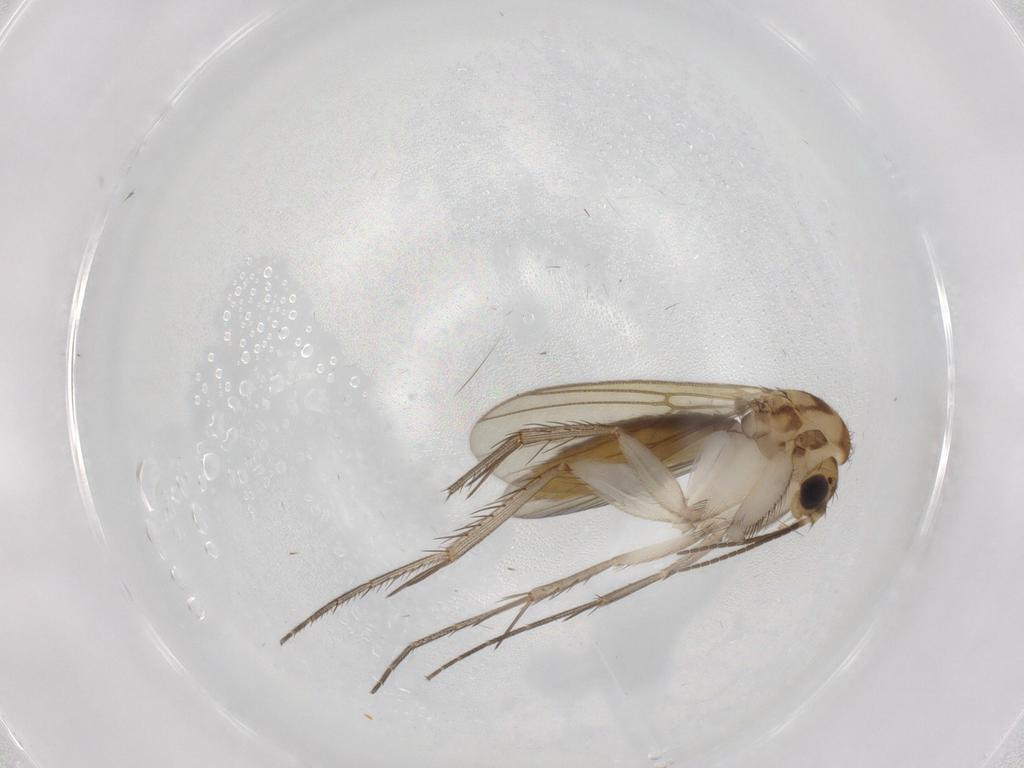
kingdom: Animalia
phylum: Arthropoda
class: Insecta
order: Diptera
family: Mycetophilidae
